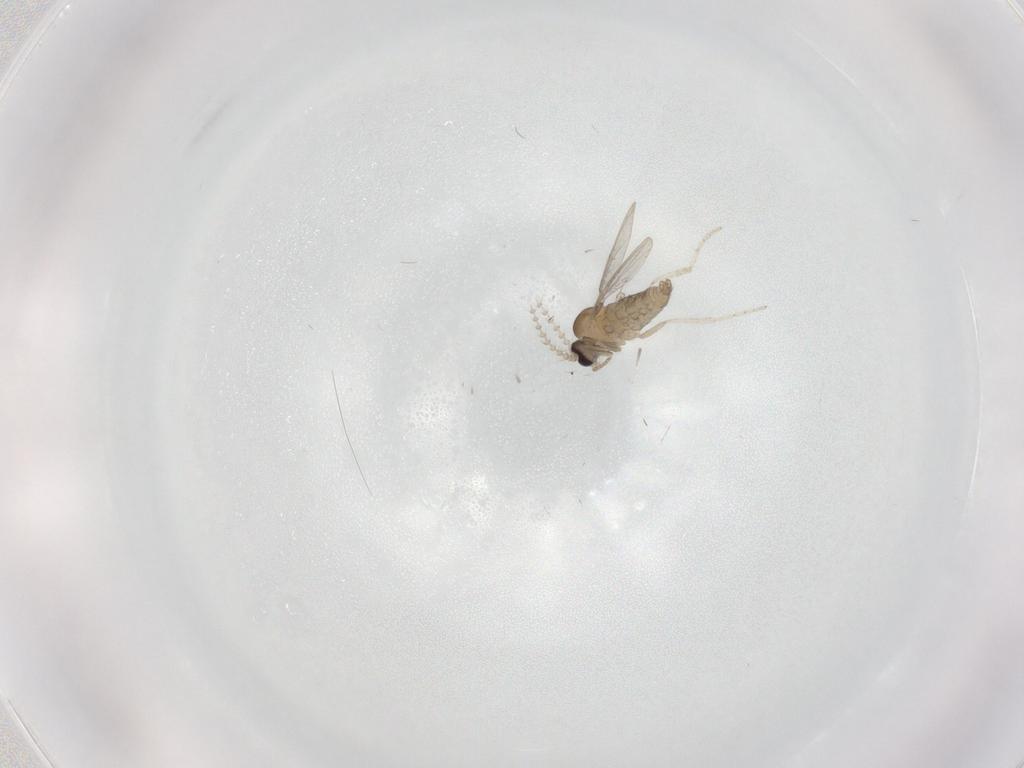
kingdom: Animalia
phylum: Arthropoda
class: Insecta
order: Diptera
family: Cecidomyiidae
